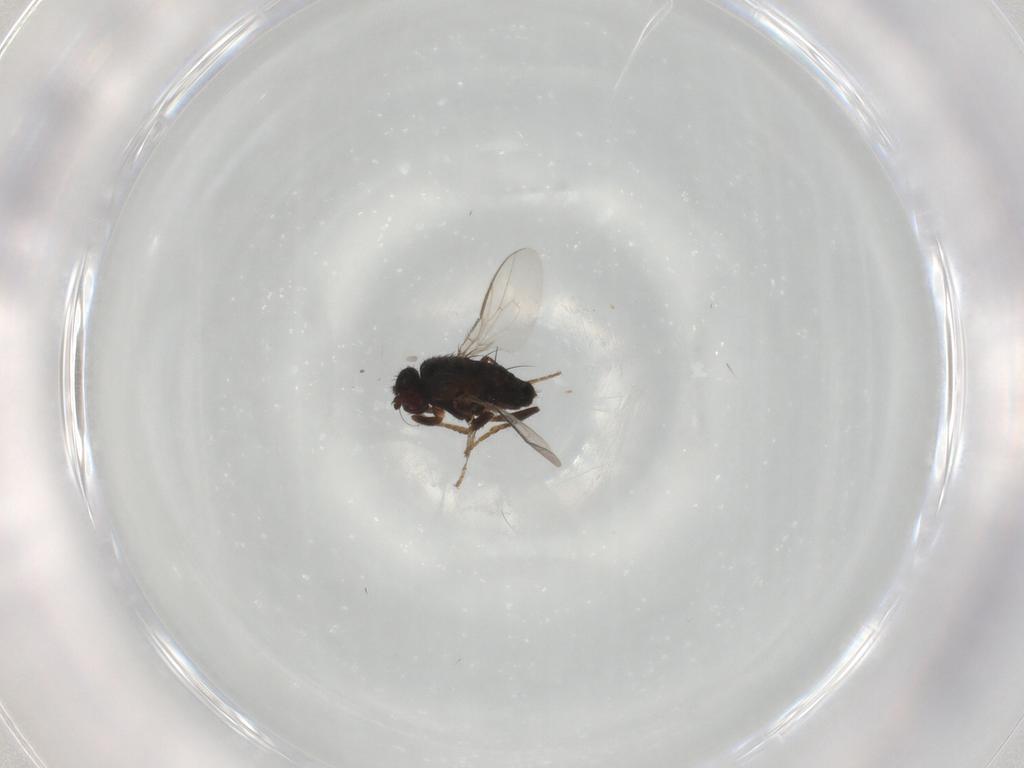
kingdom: Animalia
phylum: Arthropoda
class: Insecta
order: Diptera
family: Sphaeroceridae
